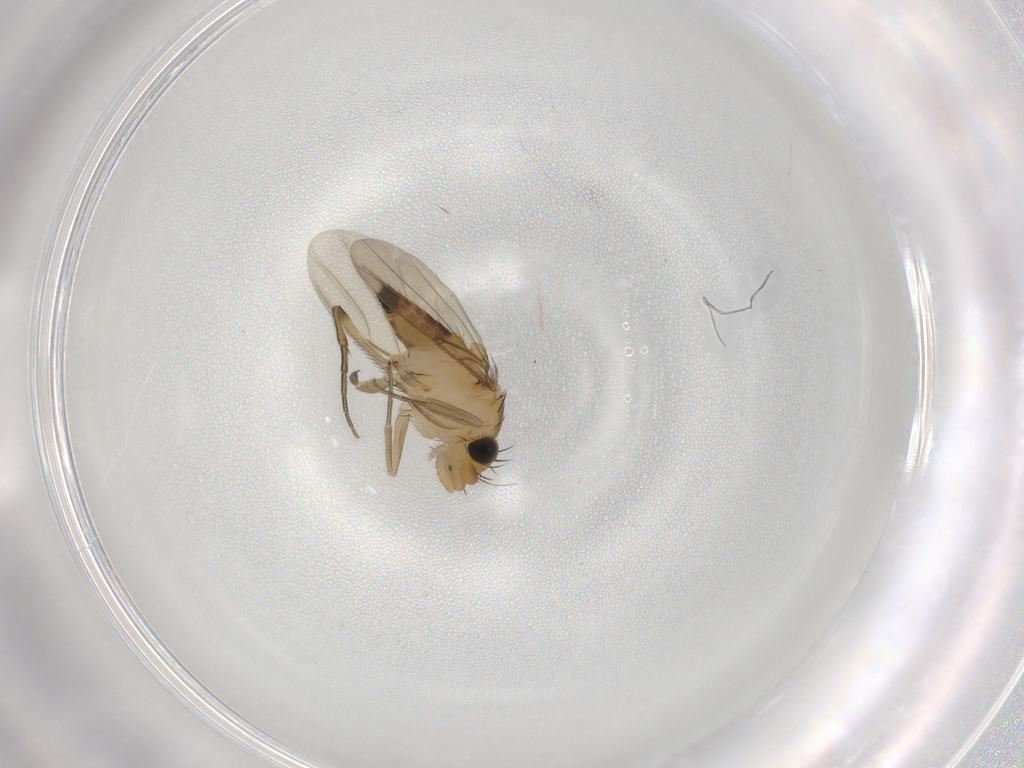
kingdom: Animalia
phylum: Arthropoda
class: Insecta
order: Diptera
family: Phoridae
